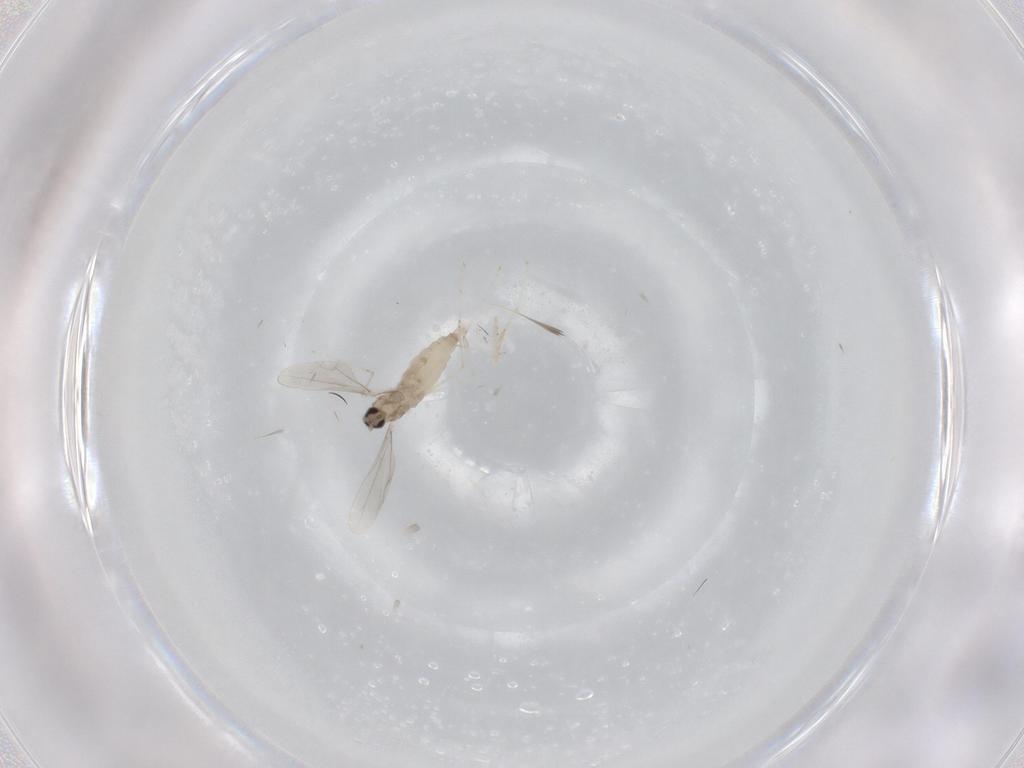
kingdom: Animalia
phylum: Arthropoda
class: Insecta
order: Diptera
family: Cecidomyiidae
